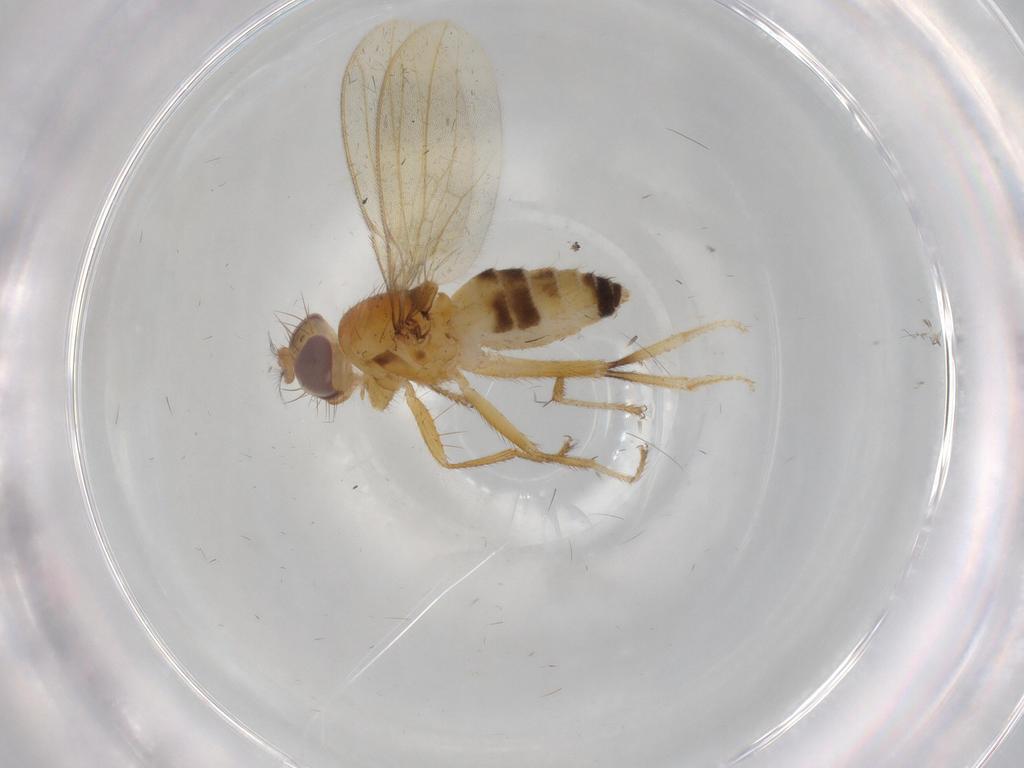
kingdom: Animalia
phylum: Arthropoda
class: Insecta
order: Diptera
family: Periscelididae
